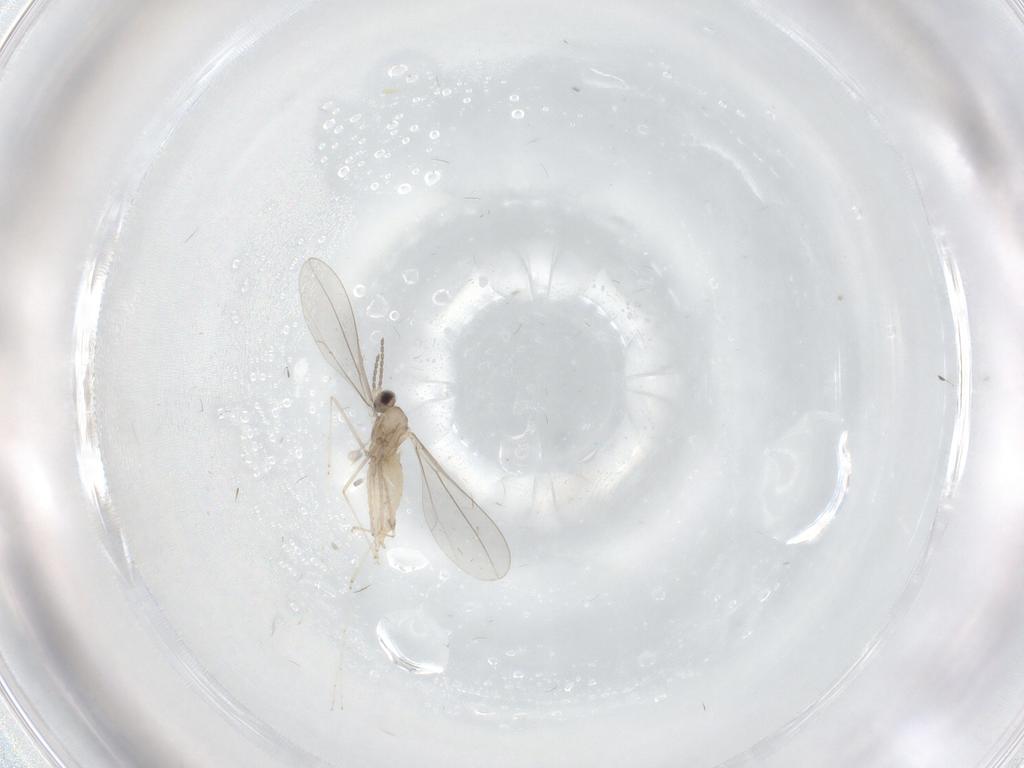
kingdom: Animalia
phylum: Arthropoda
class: Insecta
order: Diptera
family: Cecidomyiidae
